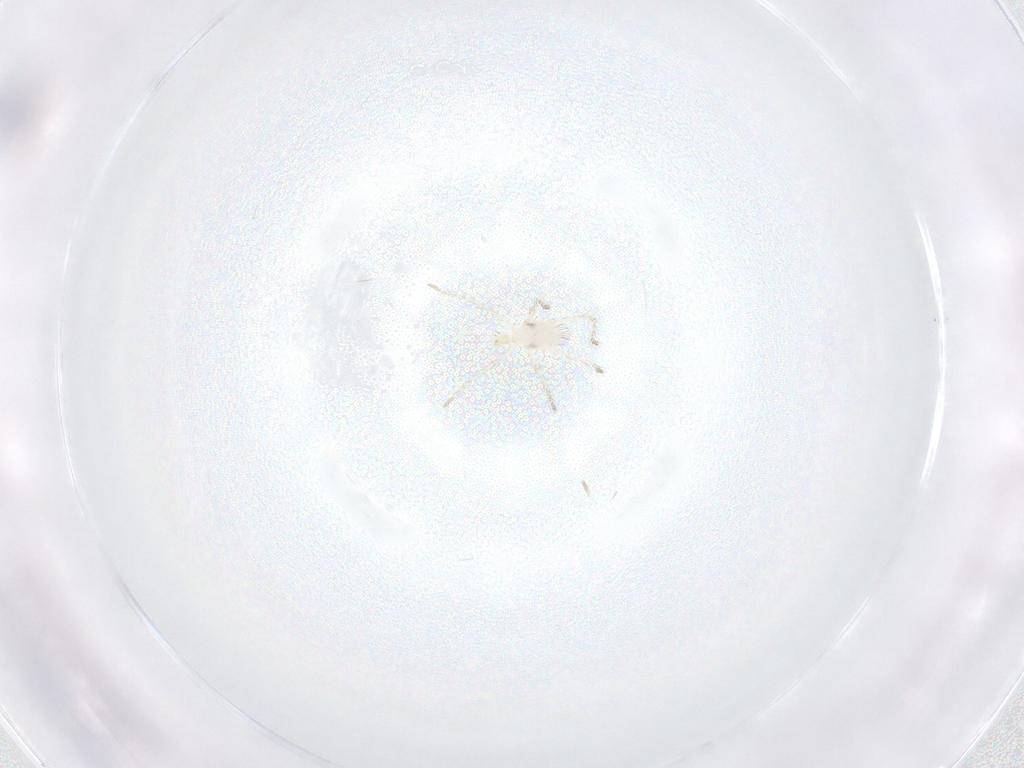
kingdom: Animalia
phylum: Arthropoda
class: Arachnida
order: Trombidiformes
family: Erythraeidae
